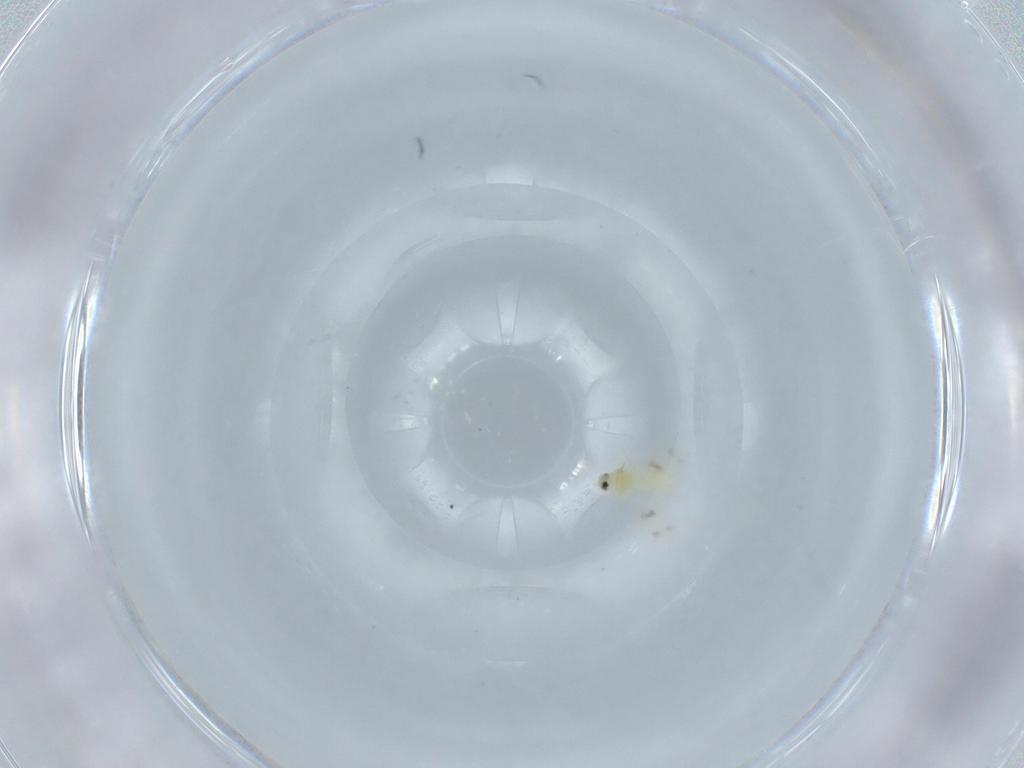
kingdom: Animalia
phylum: Arthropoda
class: Insecta
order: Hemiptera
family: Aleyrodidae
